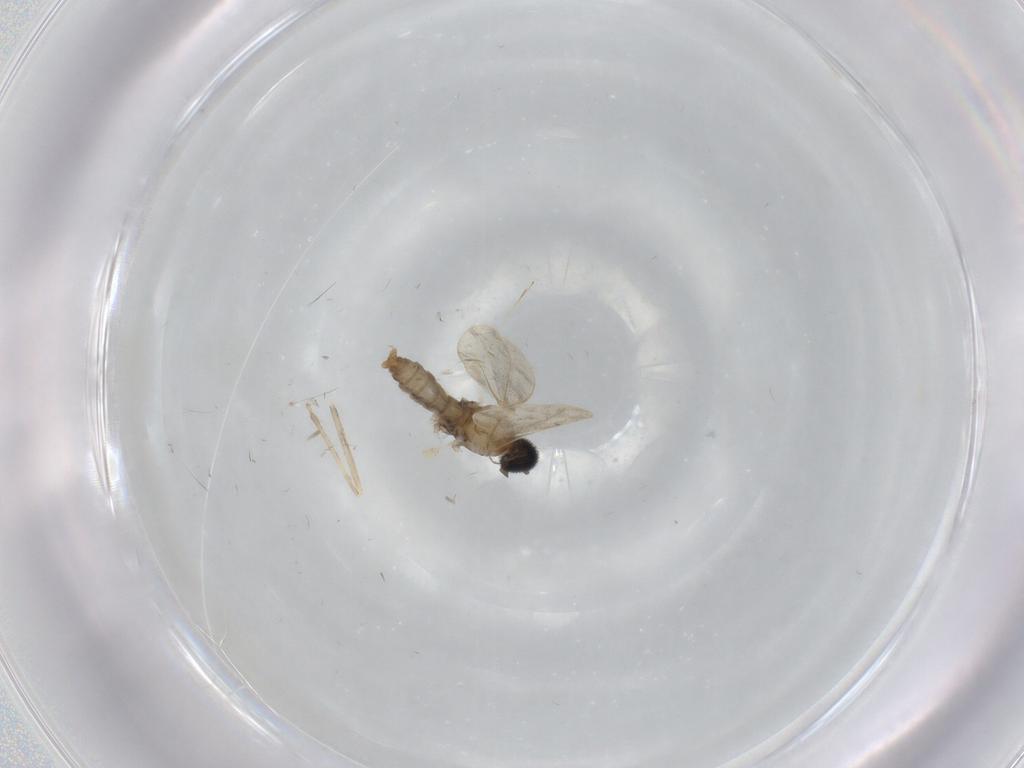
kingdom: Animalia
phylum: Arthropoda
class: Insecta
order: Diptera
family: Cecidomyiidae
